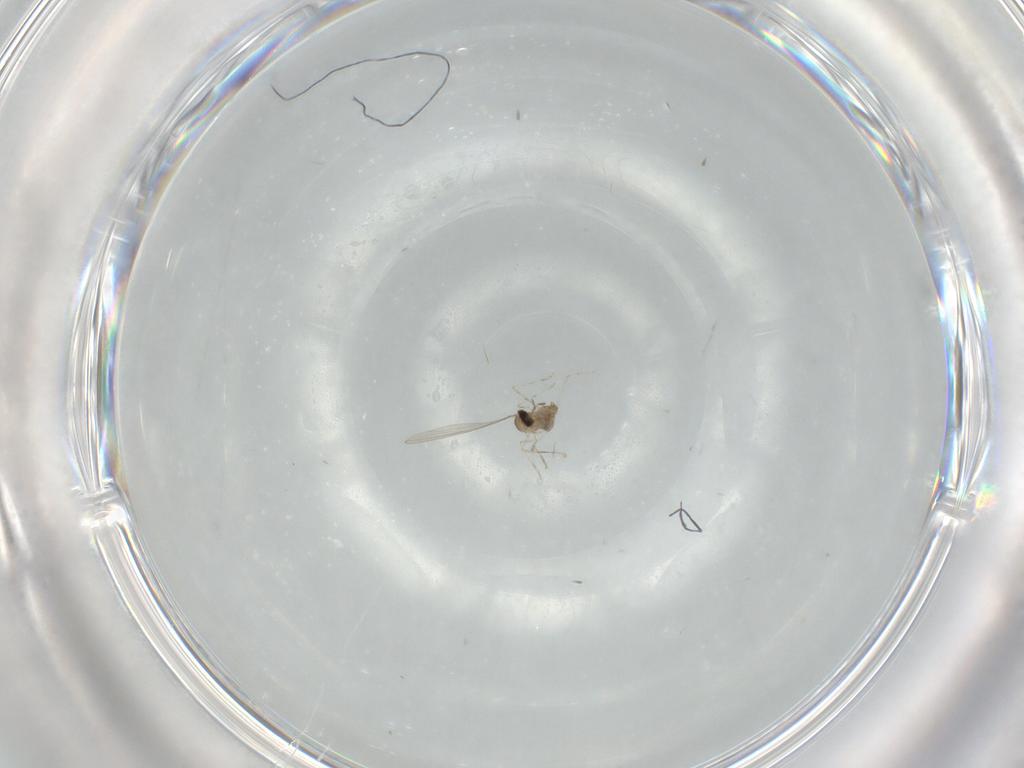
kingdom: Animalia
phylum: Arthropoda
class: Insecta
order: Diptera
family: Cecidomyiidae
